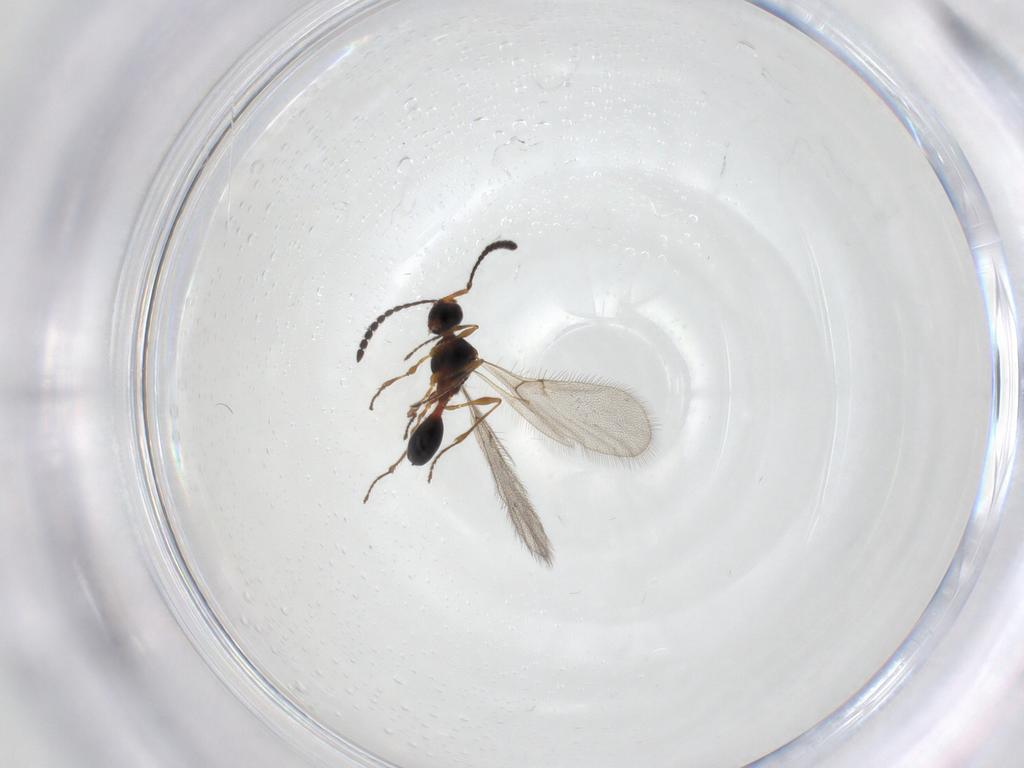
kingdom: Animalia
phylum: Arthropoda
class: Insecta
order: Hymenoptera
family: Diapriidae
